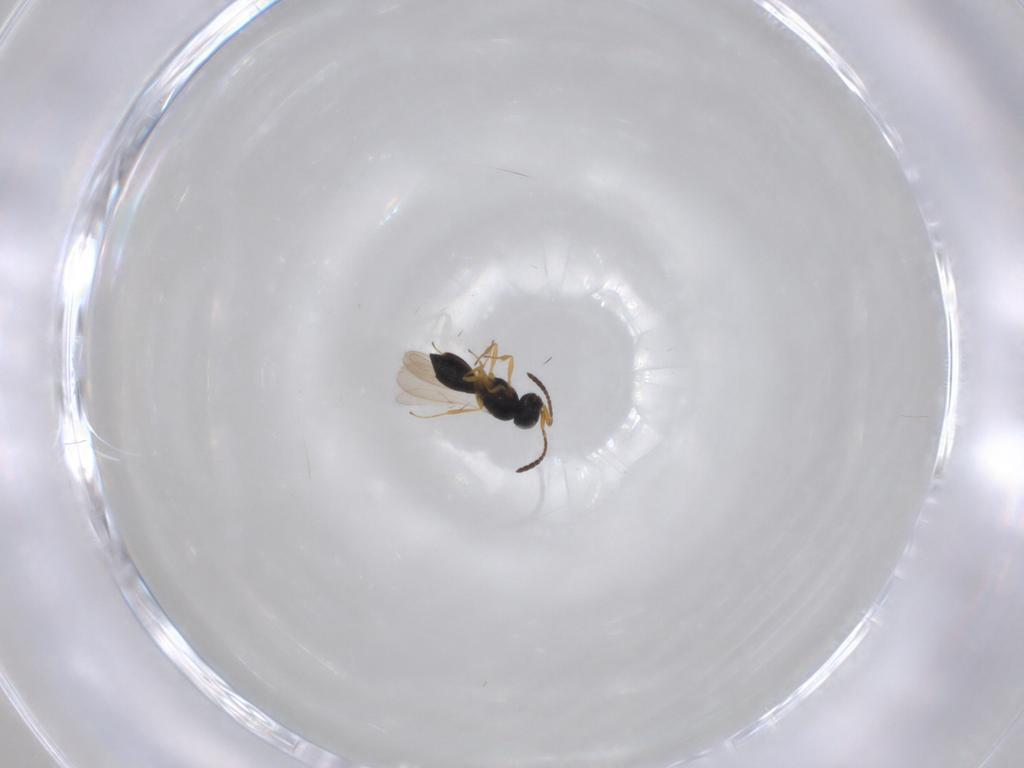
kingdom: Animalia
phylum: Arthropoda
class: Insecta
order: Hymenoptera
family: Scelionidae
